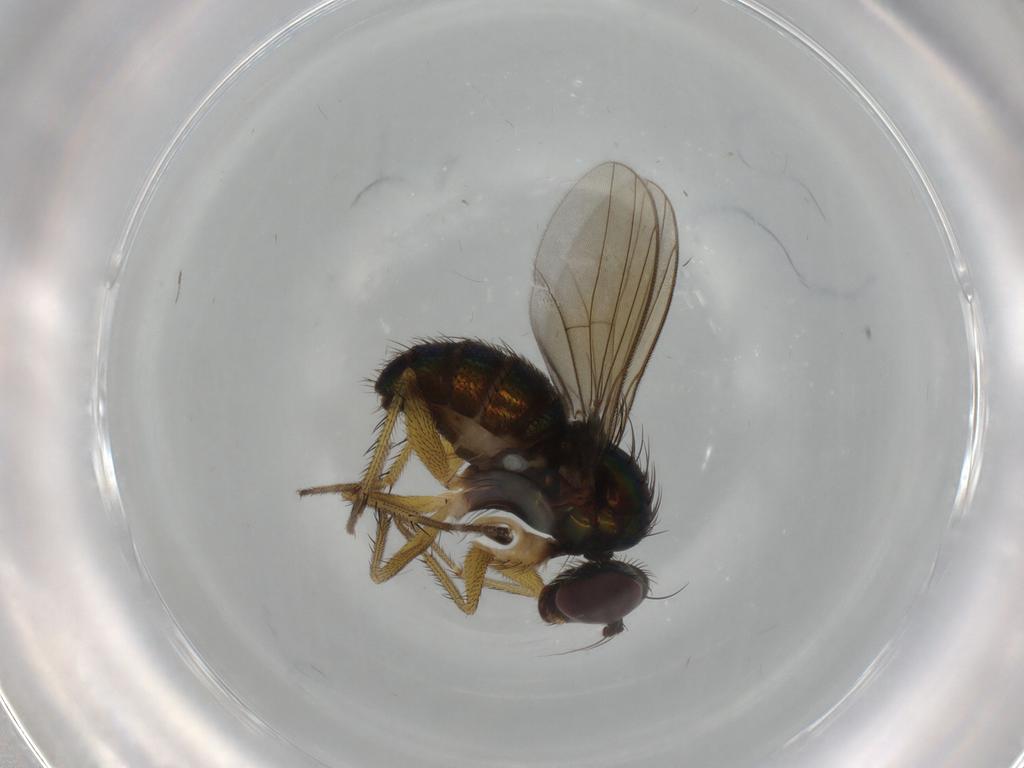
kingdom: Animalia
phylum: Arthropoda
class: Insecta
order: Diptera
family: Dolichopodidae
